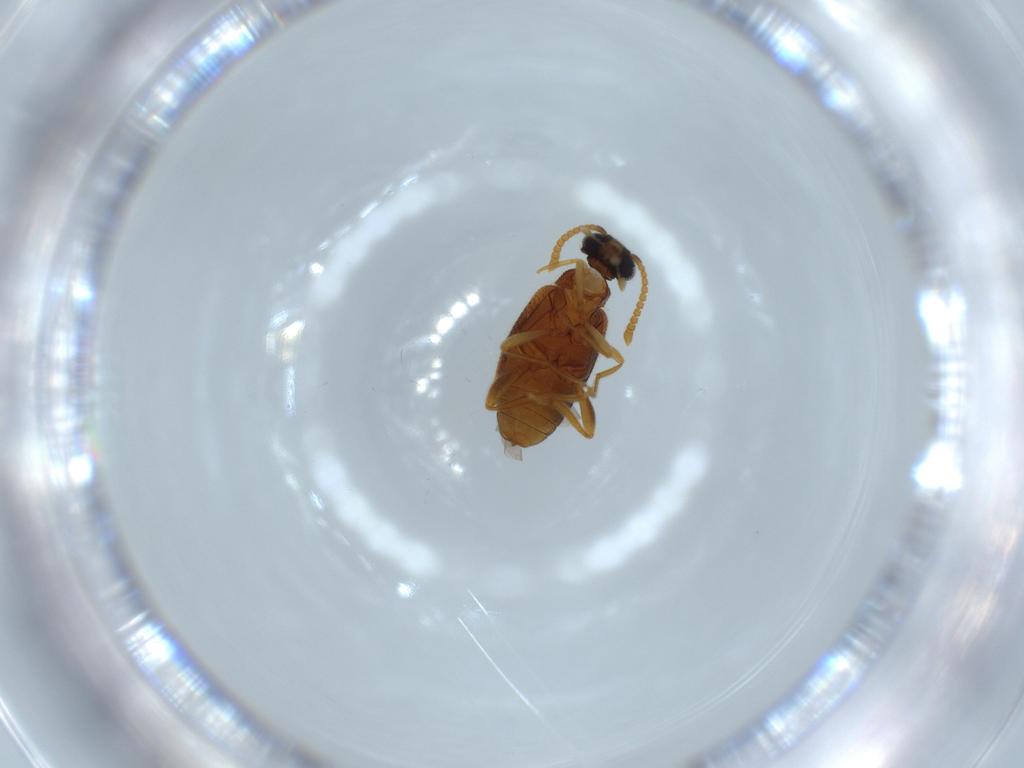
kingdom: Animalia
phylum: Arthropoda
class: Insecta
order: Coleoptera
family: Aderidae
